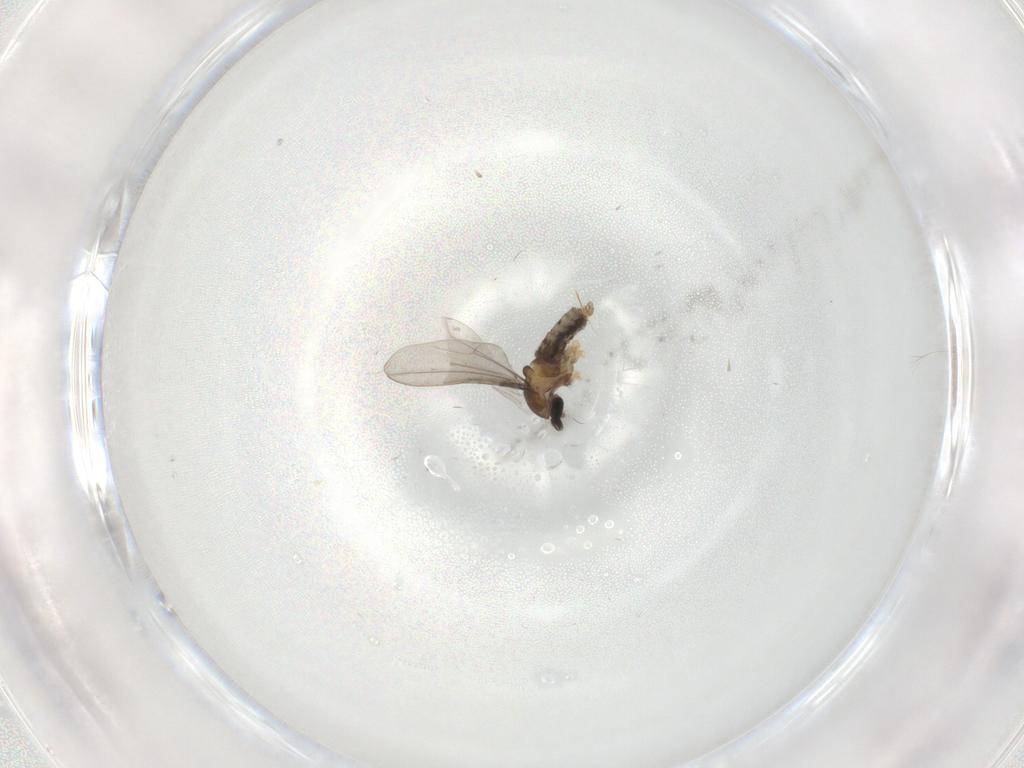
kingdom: Animalia
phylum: Arthropoda
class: Insecta
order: Diptera
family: Cecidomyiidae
